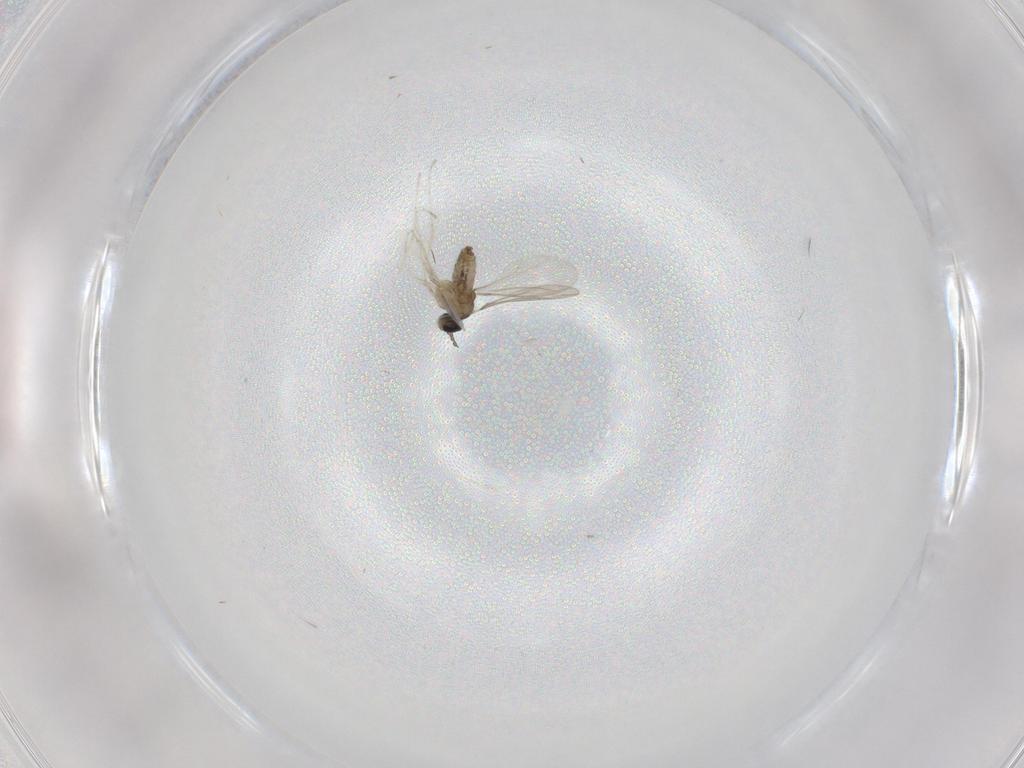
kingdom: Animalia
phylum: Arthropoda
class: Insecta
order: Diptera
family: Cecidomyiidae
